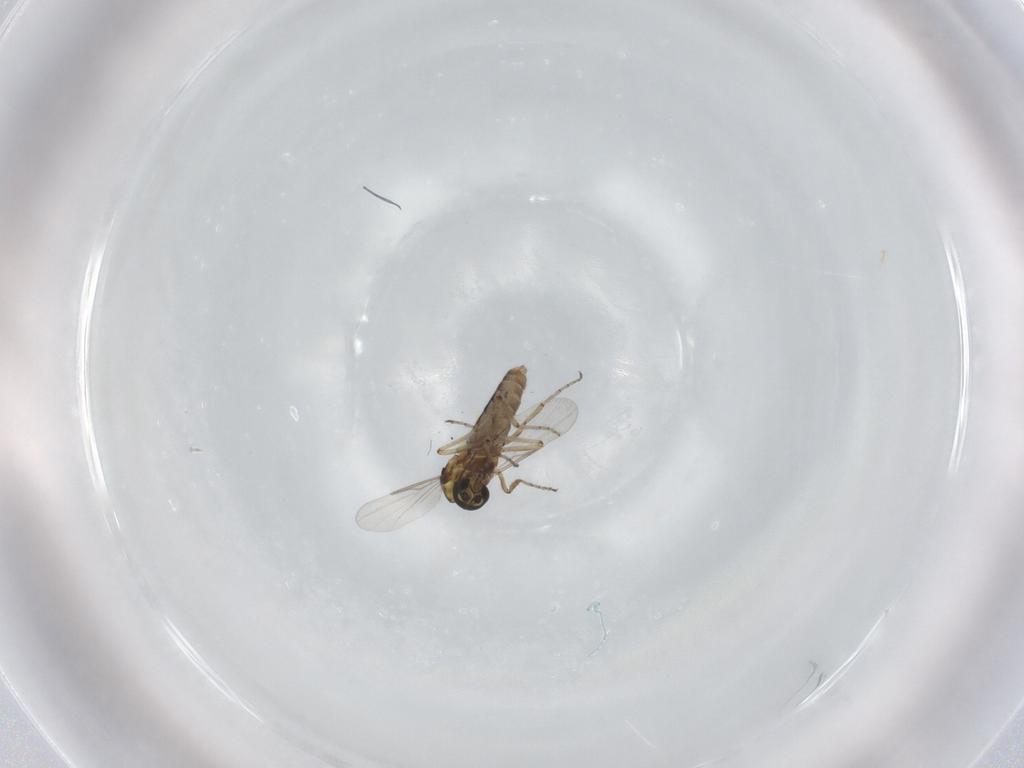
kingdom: Animalia
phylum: Arthropoda
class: Insecta
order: Diptera
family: Ceratopogonidae
